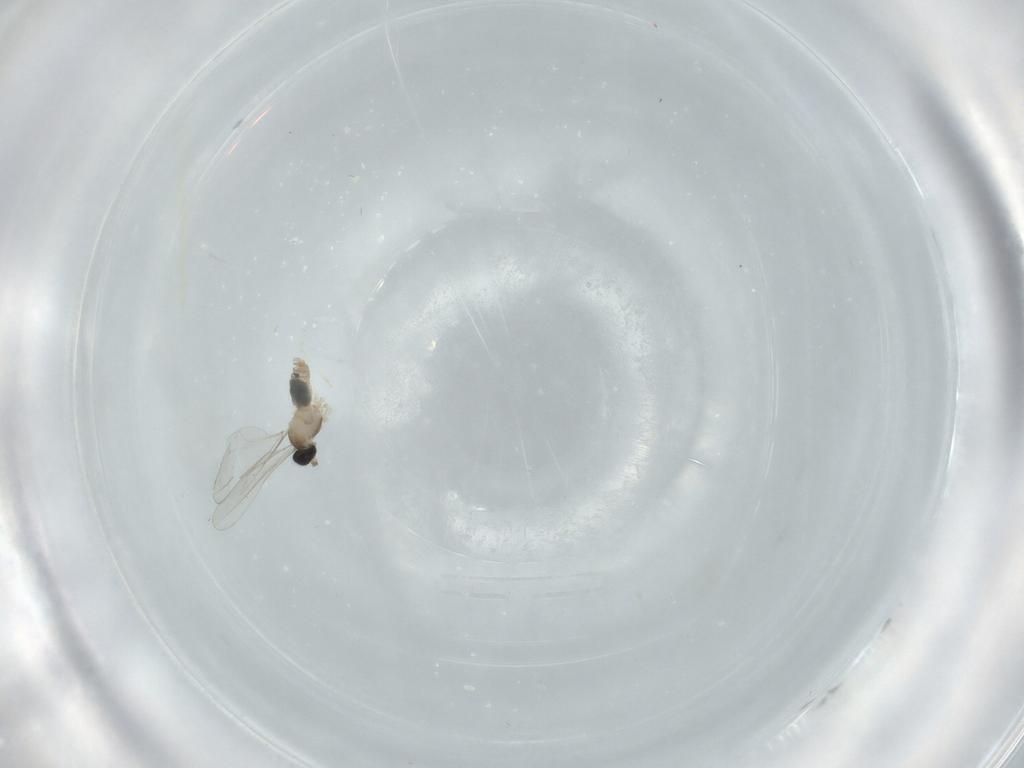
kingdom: Animalia
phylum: Arthropoda
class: Insecta
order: Diptera
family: Cecidomyiidae
